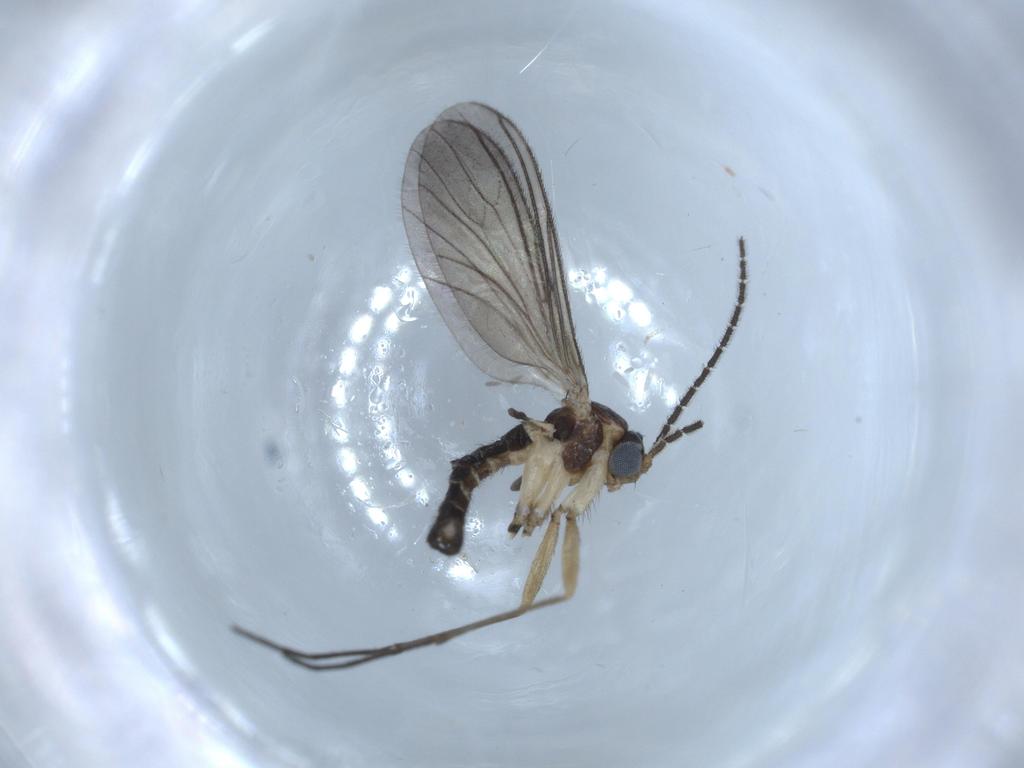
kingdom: Animalia
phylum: Arthropoda
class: Insecta
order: Diptera
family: Sciaridae
